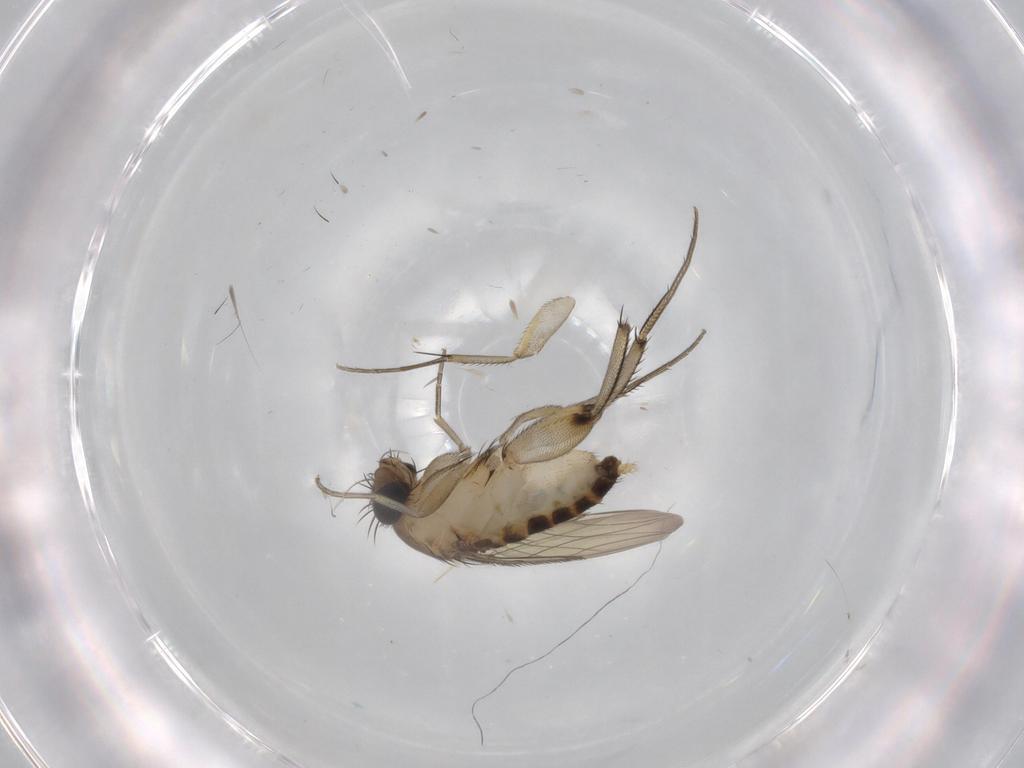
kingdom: Animalia
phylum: Arthropoda
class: Insecta
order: Diptera
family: Phoridae
